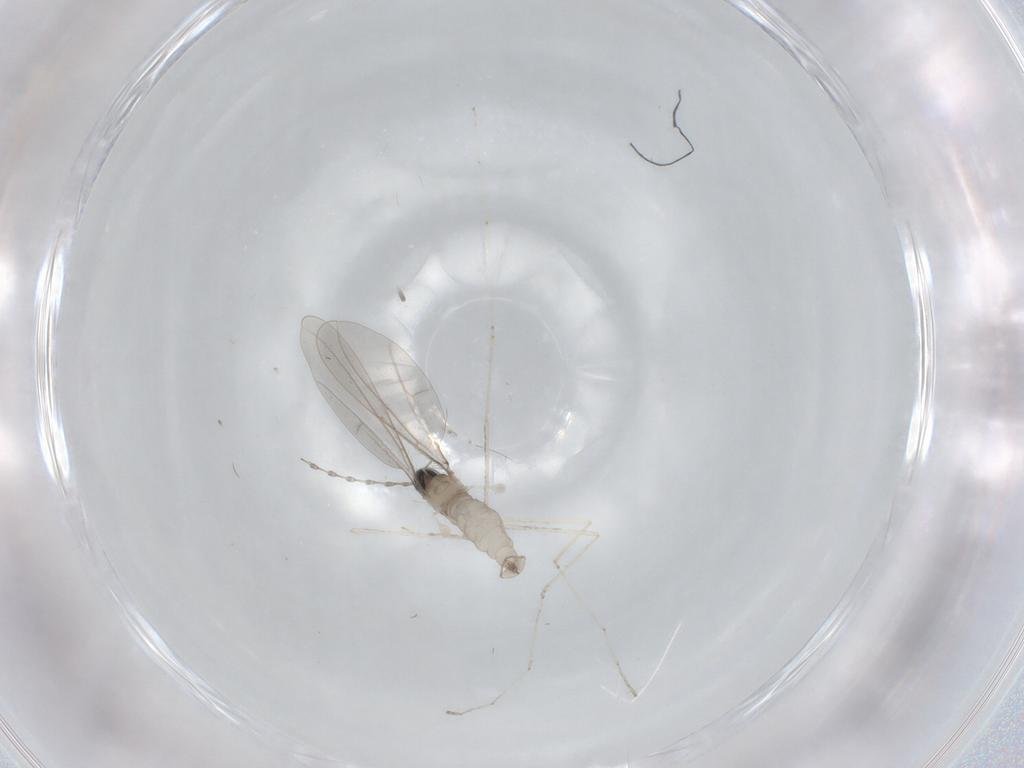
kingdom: Animalia
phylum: Arthropoda
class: Insecta
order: Diptera
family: Cecidomyiidae
